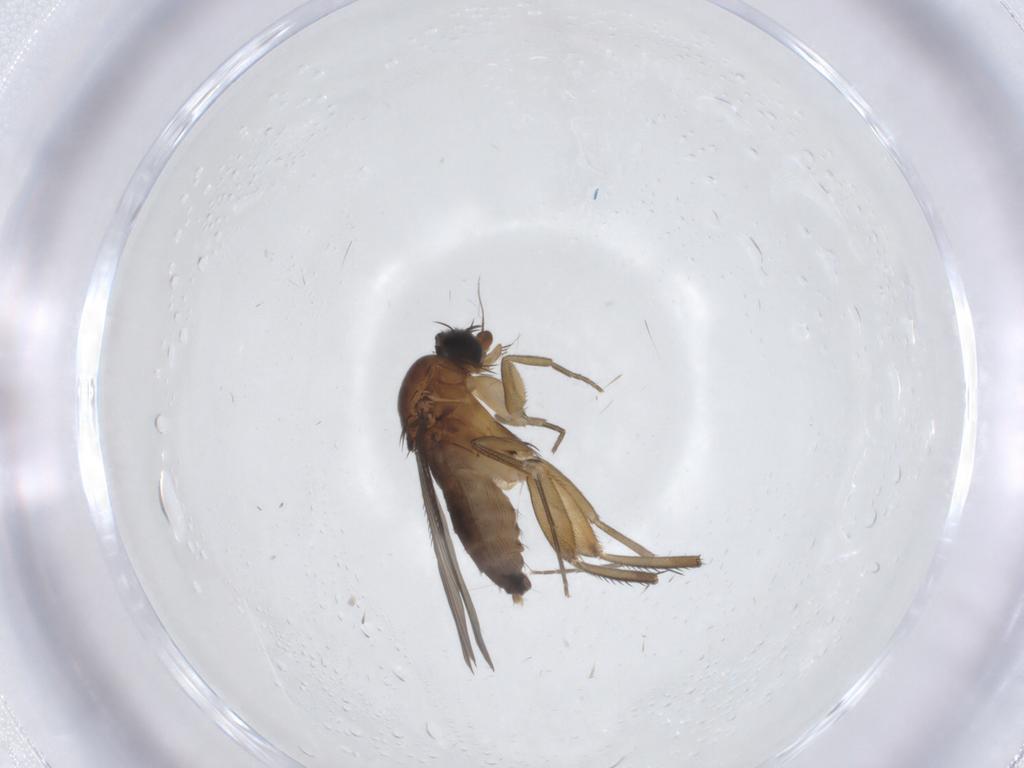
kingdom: Animalia
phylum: Arthropoda
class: Insecta
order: Diptera
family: Phoridae
